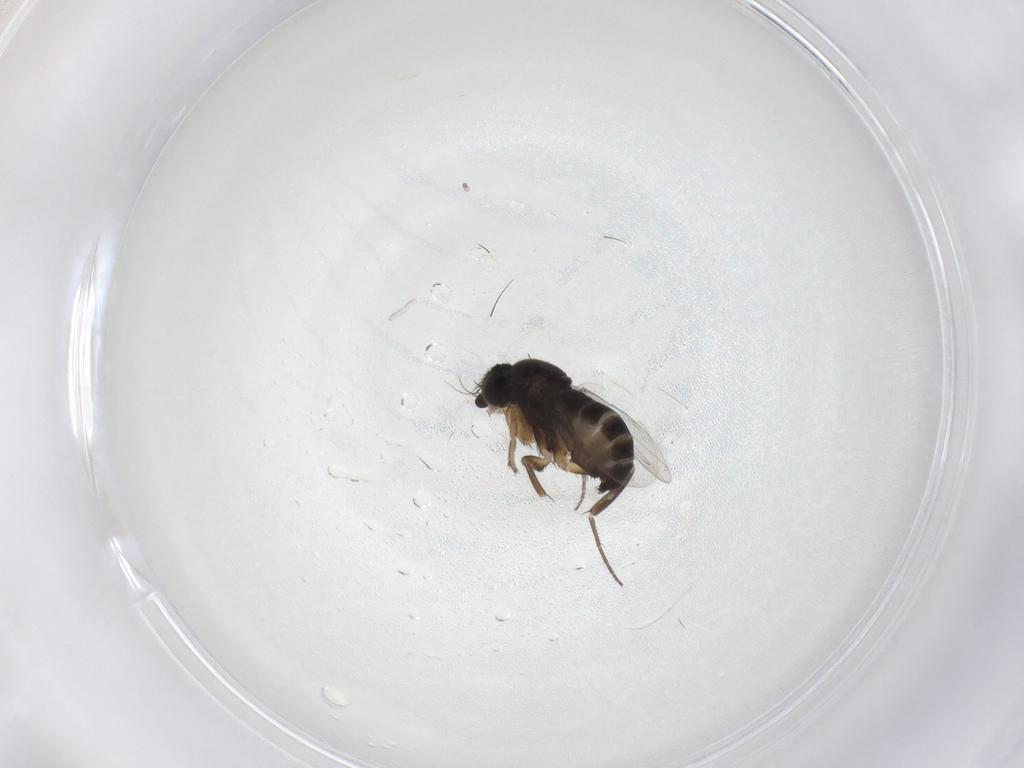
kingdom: Animalia
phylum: Arthropoda
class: Insecta
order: Diptera
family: Phoridae
